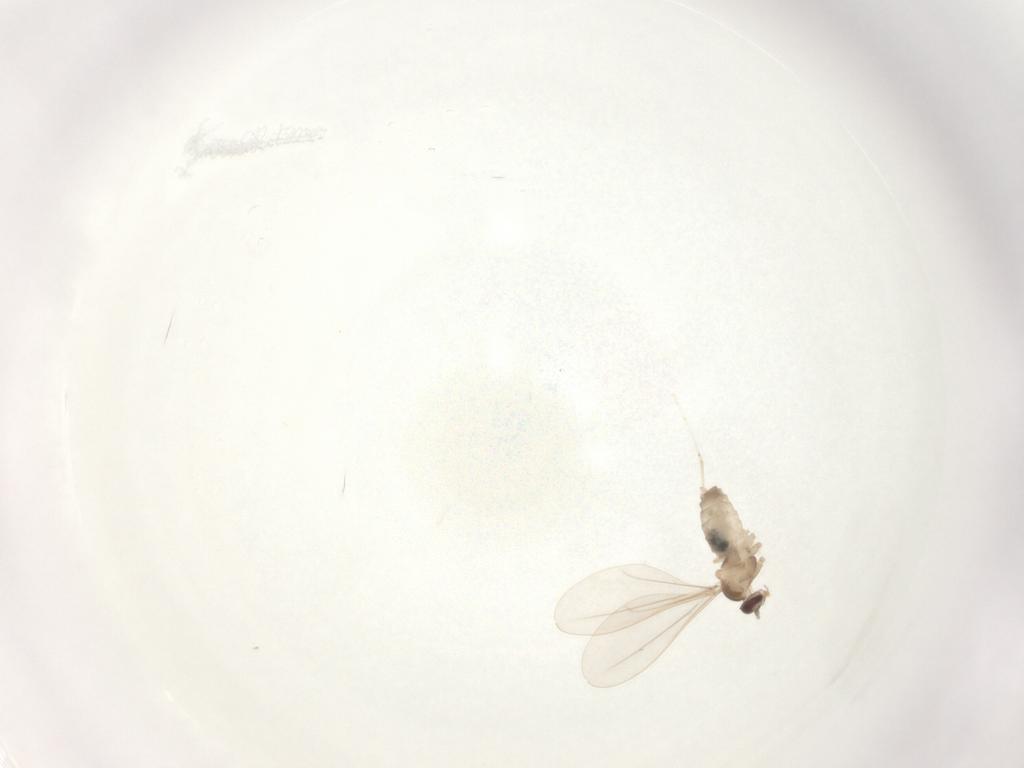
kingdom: Animalia
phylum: Arthropoda
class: Insecta
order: Diptera
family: Cecidomyiidae
